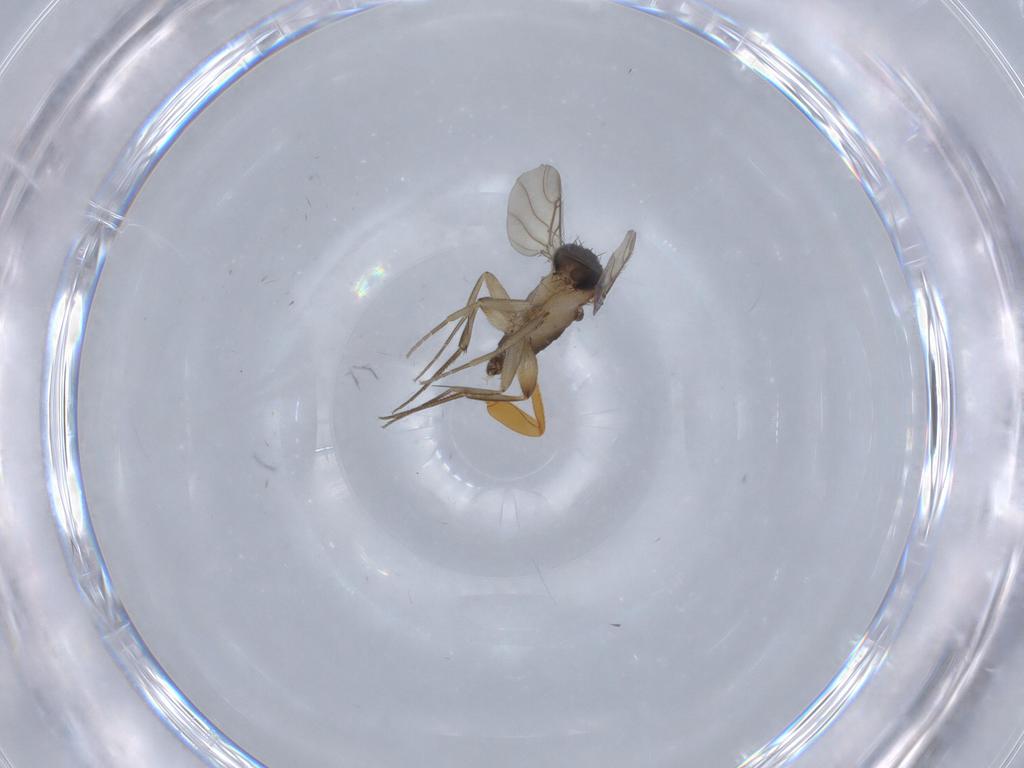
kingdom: Animalia
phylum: Arthropoda
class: Insecta
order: Diptera
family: Phoridae
